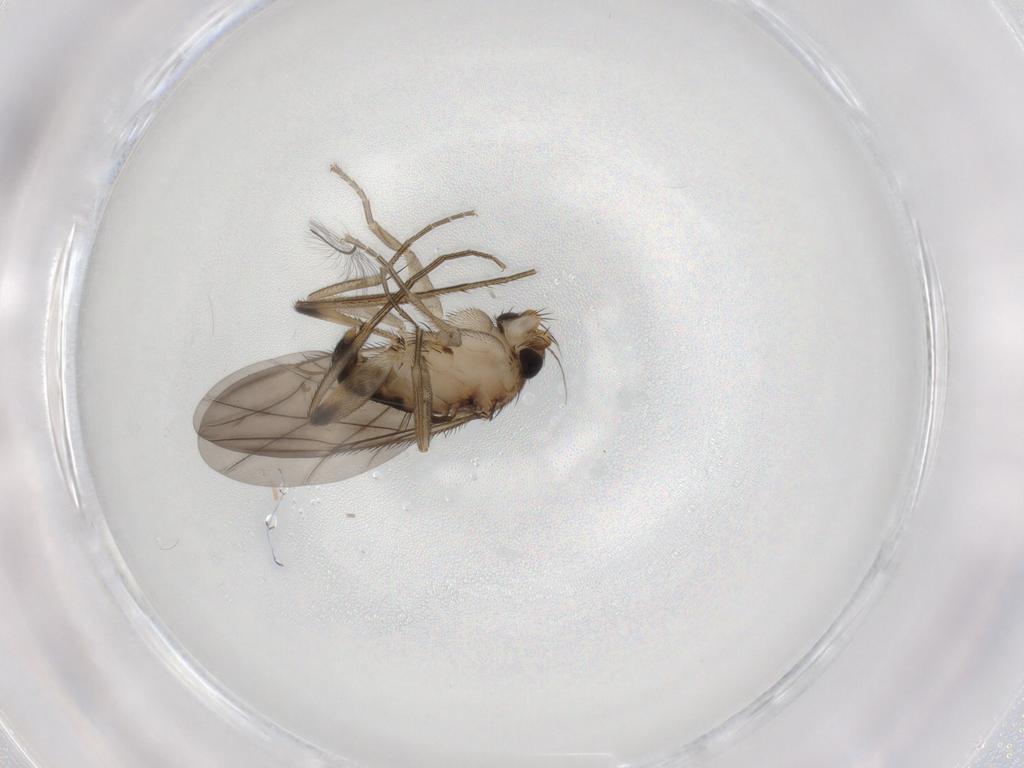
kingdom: Animalia
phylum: Arthropoda
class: Insecta
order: Diptera
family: Phoridae
